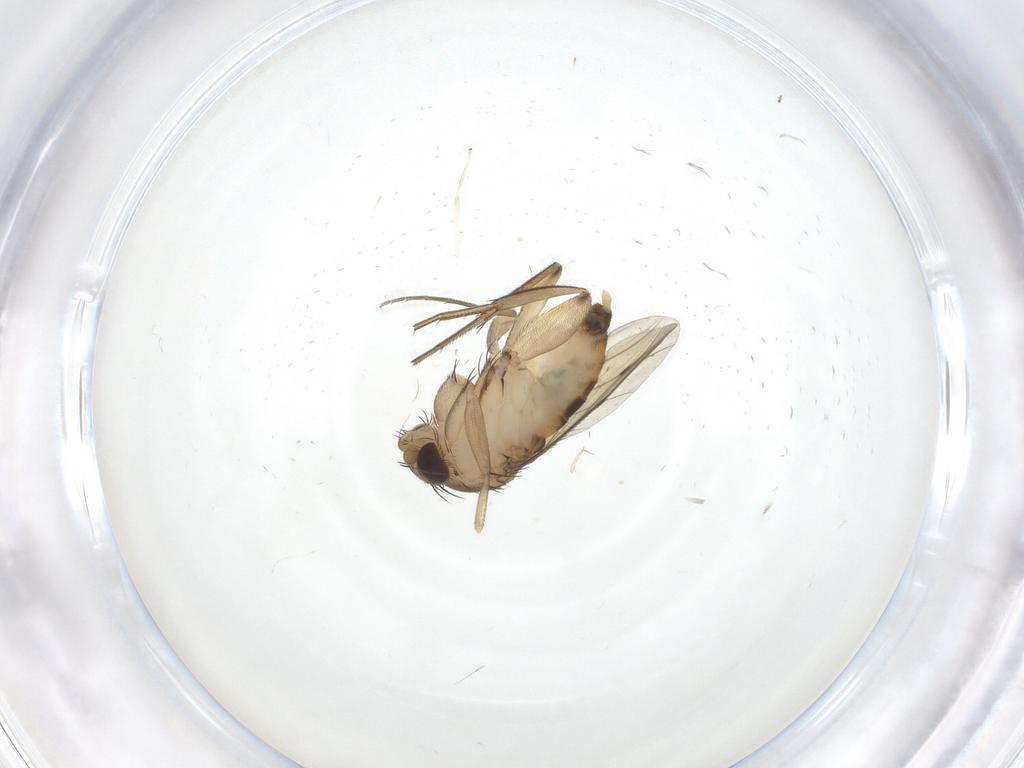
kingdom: Animalia
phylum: Arthropoda
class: Insecta
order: Diptera
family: Phoridae
